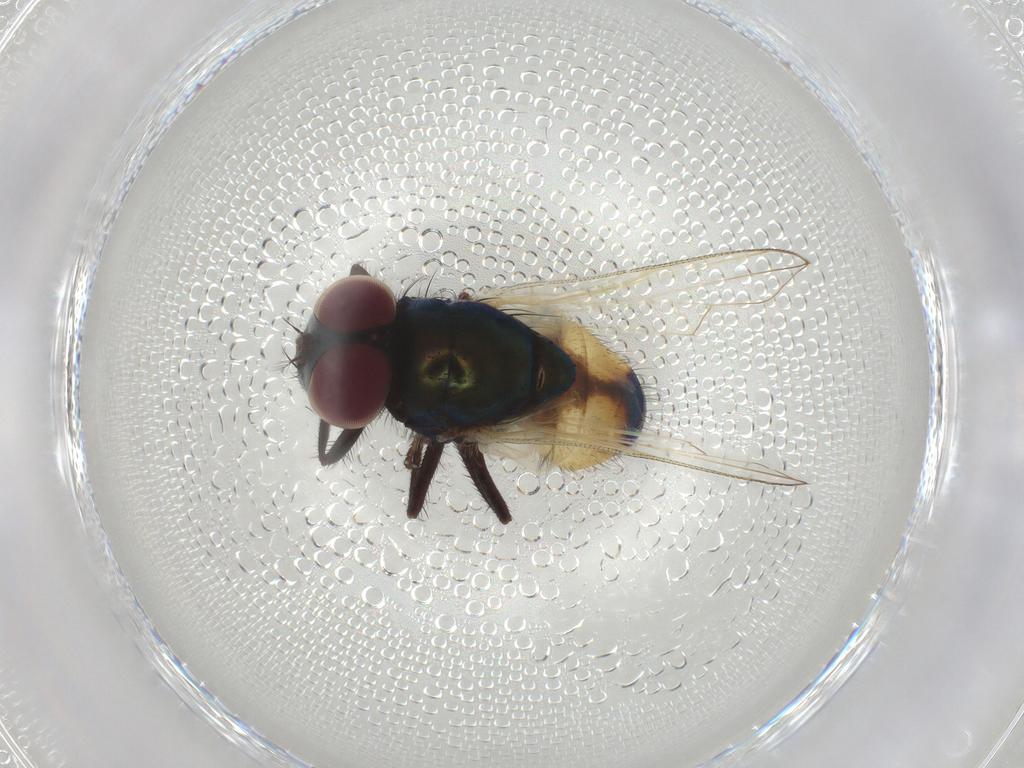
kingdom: Animalia
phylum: Arthropoda
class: Insecta
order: Diptera
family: Muscidae
